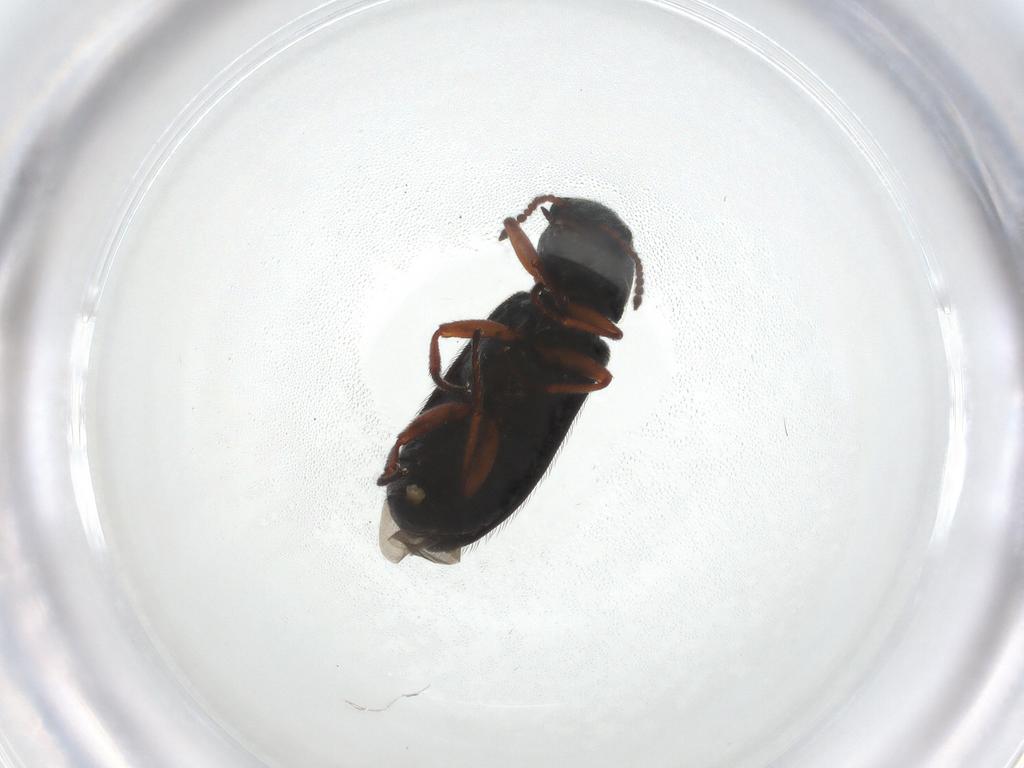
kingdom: Animalia
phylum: Arthropoda
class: Insecta
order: Coleoptera
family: Melyridae
